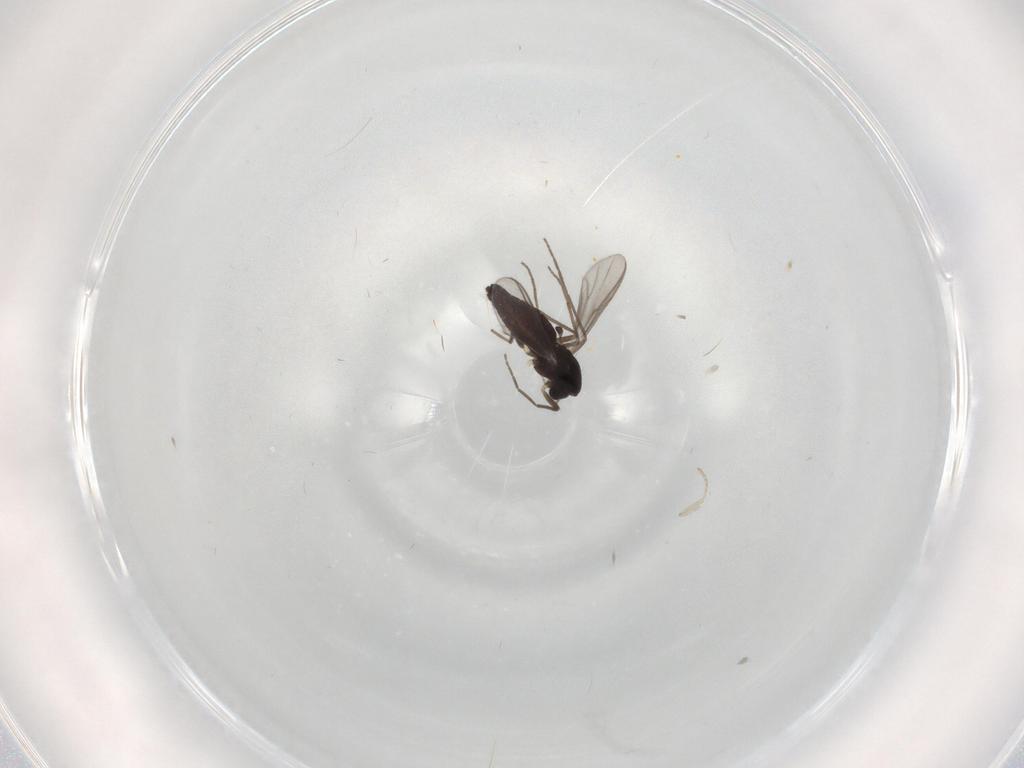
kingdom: Animalia
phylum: Arthropoda
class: Insecta
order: Diptera
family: Chironomidae
